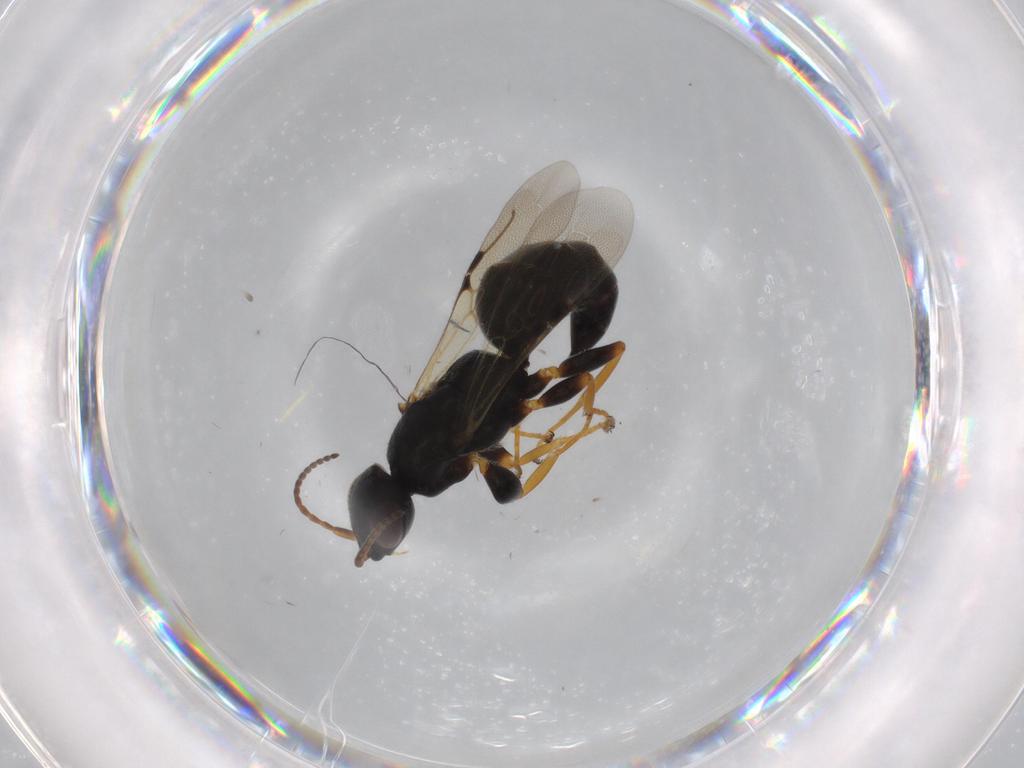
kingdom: Animalia
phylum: Arthropoda
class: Insecta
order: Hymenoptera
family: Bethylidae
